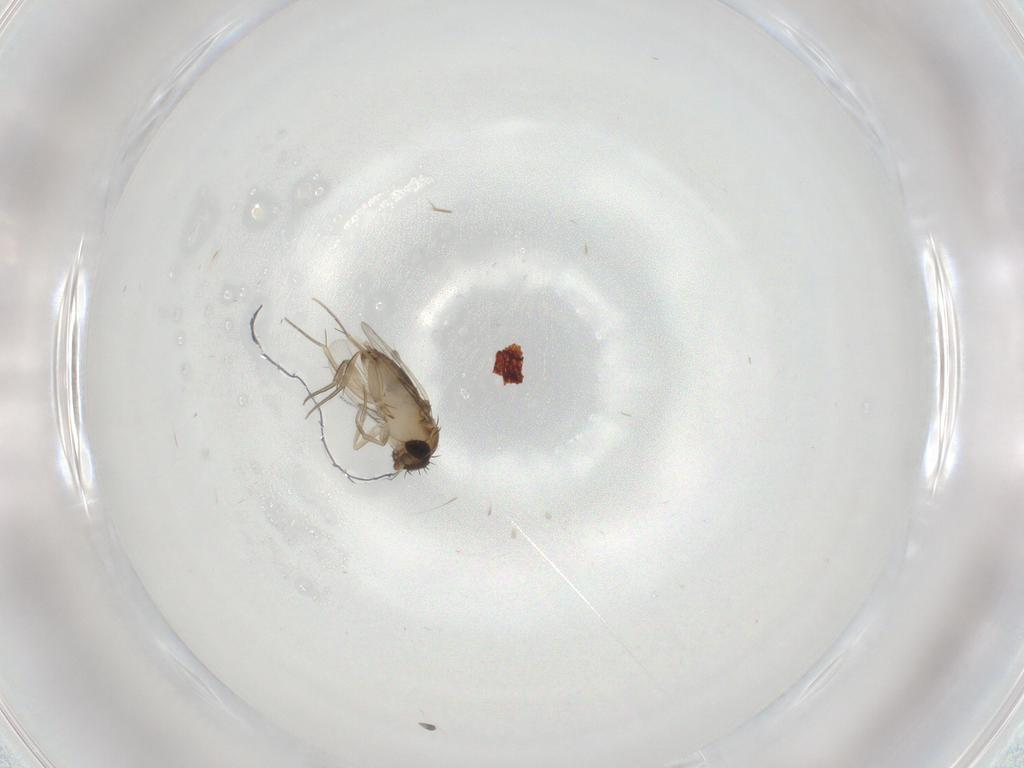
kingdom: Animalia
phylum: Arthropoda
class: Insecta
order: Diptera
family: Phoridae
